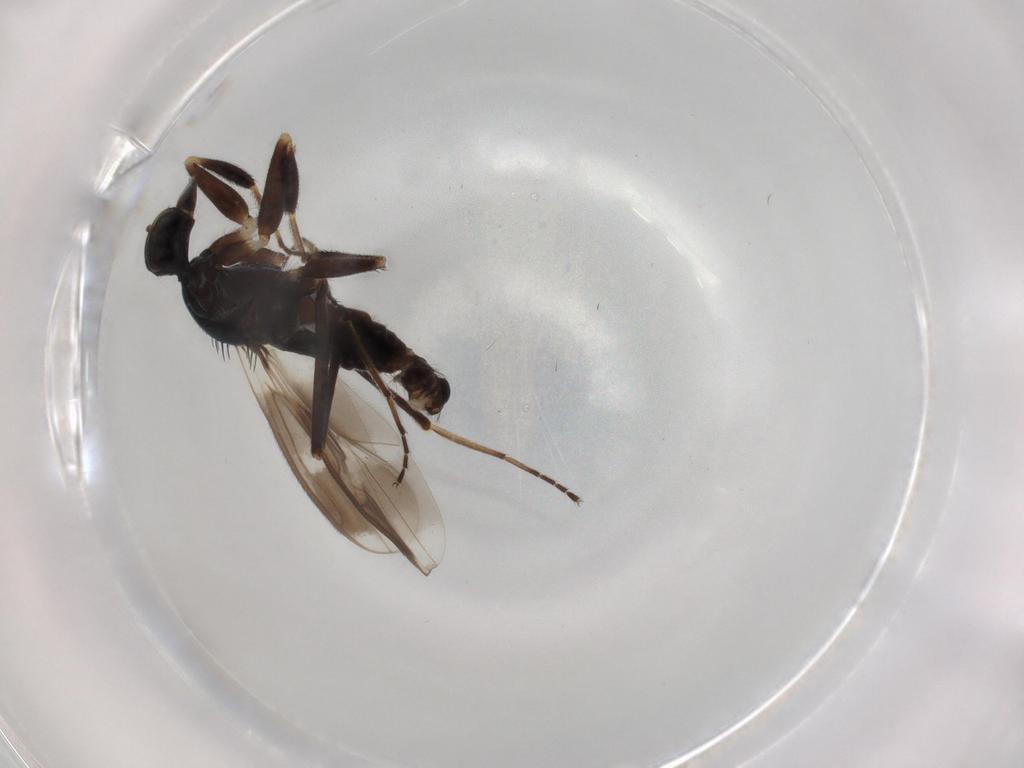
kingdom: Animalia
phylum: Arthropoda
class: Insecta
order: Diptera
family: Hybotidae
